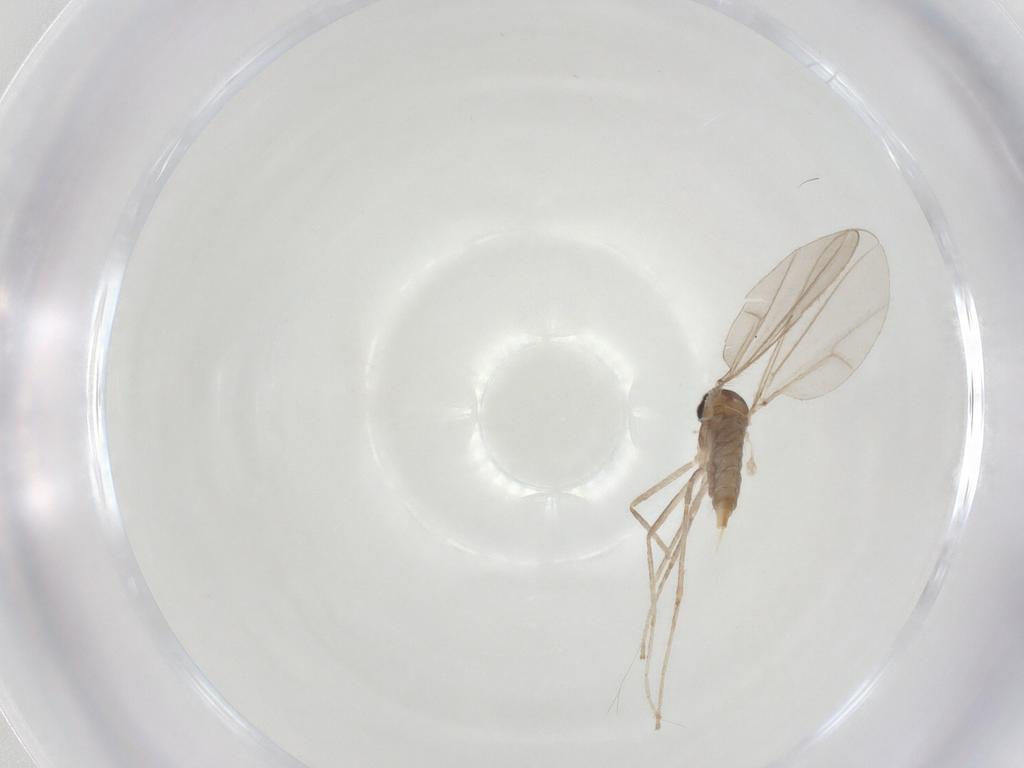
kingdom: Animalia
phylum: Arthropoda
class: Insecta
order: Diptera
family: Cecidomyiidae
